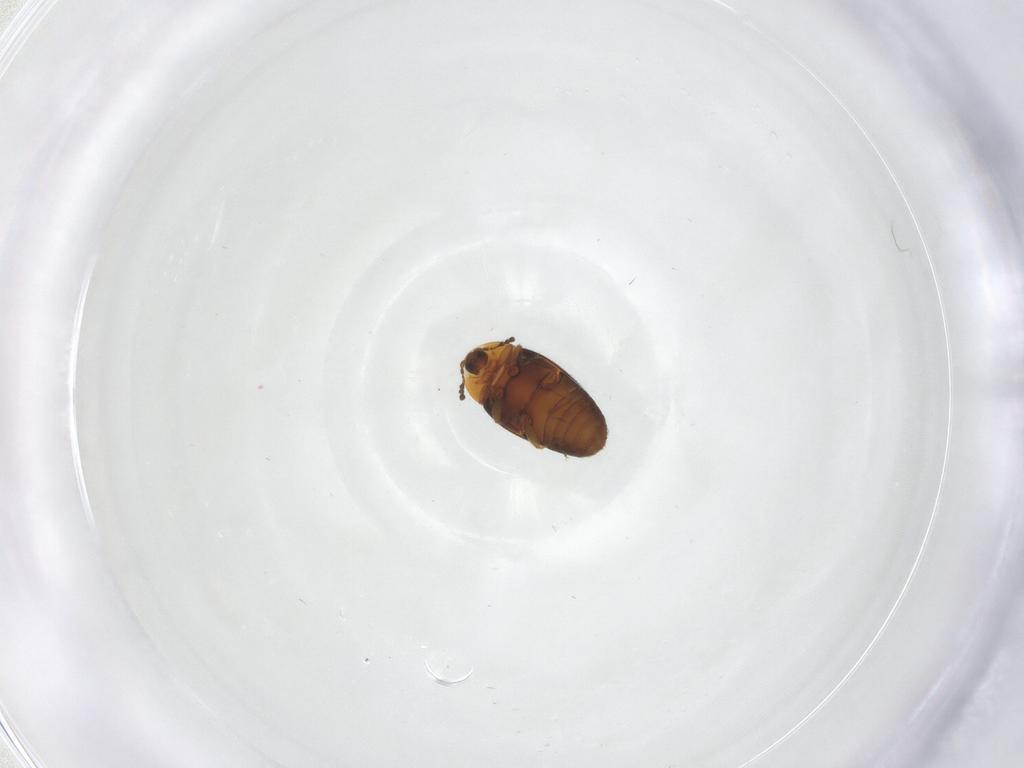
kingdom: Animalia
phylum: Arthropoda
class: Insecta
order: Coleoptera
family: Corylophidae
